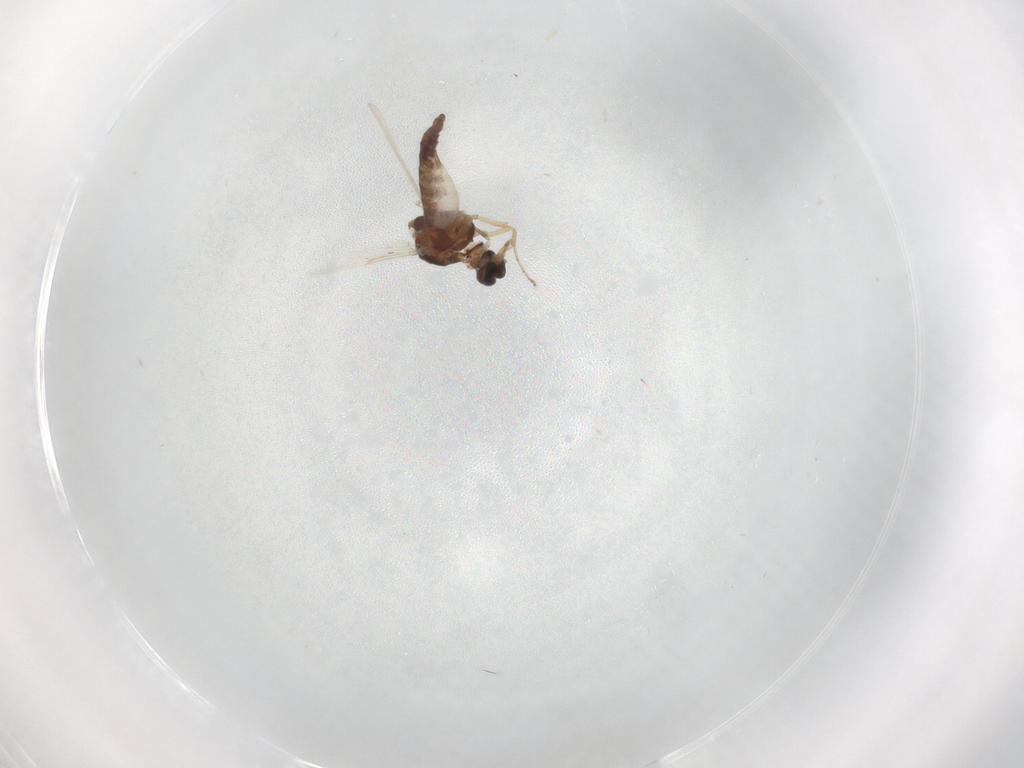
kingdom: Animalia
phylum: Arthropoda
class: Insecta
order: Diptera
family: Ceratopogonidae
